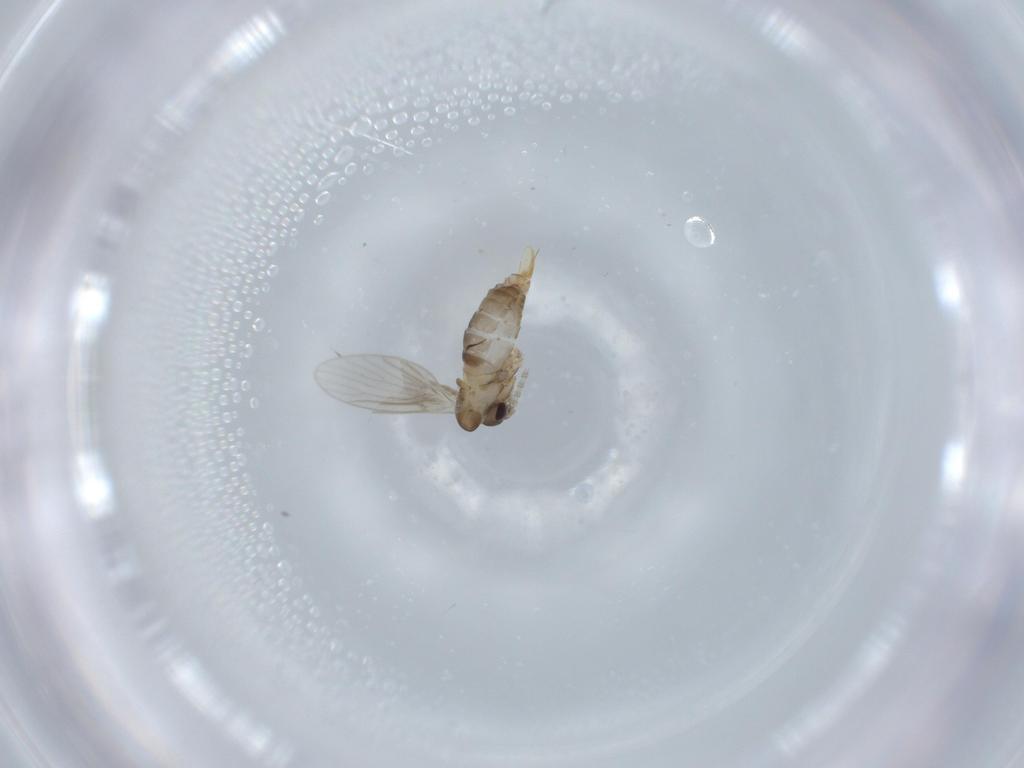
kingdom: Animalia
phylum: Arthropoda
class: Insecta
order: Diptera
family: Psychodidae
